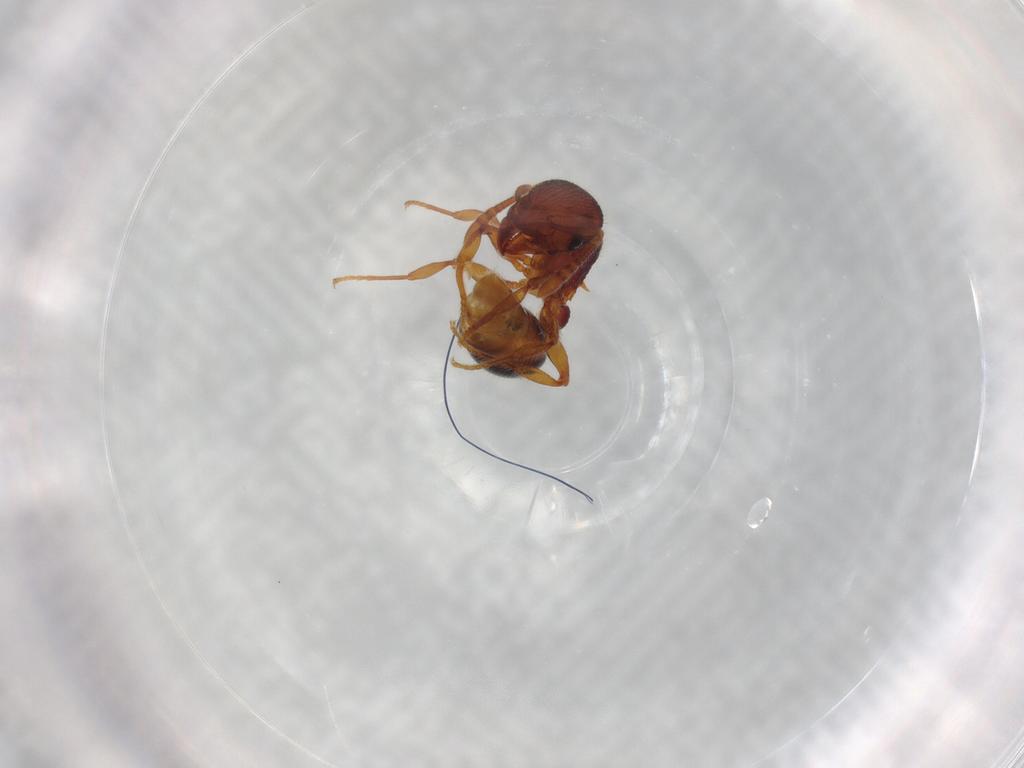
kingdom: Animalia
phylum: Arthropoda
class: Insecta
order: Hymenoptera
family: Formicidae
